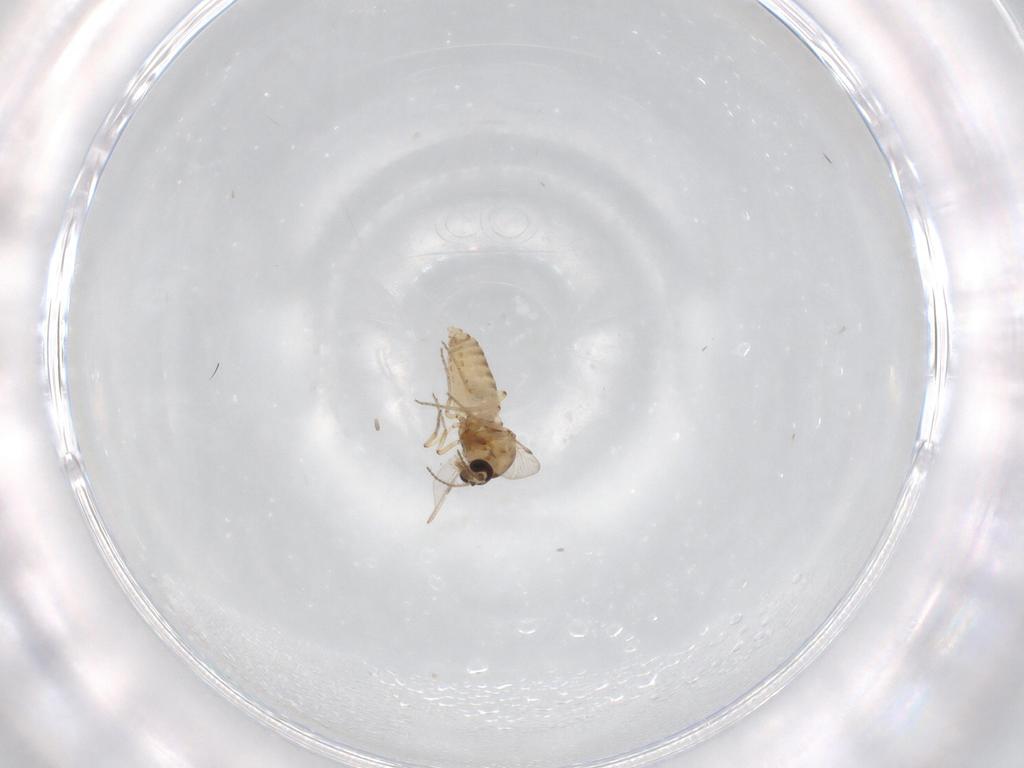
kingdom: Animalia
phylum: Arthropoda
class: Insecta
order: Diptera
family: Ceratopogonidae
